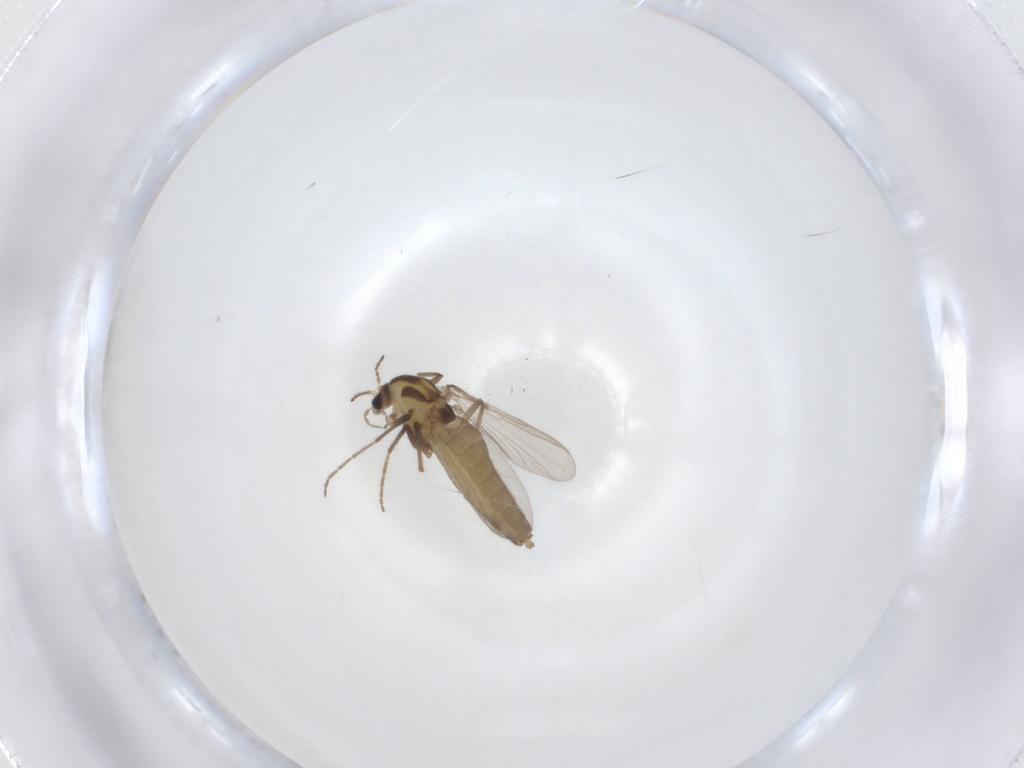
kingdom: Animalia
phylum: Arthropoda
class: Insecta
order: Diptera
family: Chironomidae
